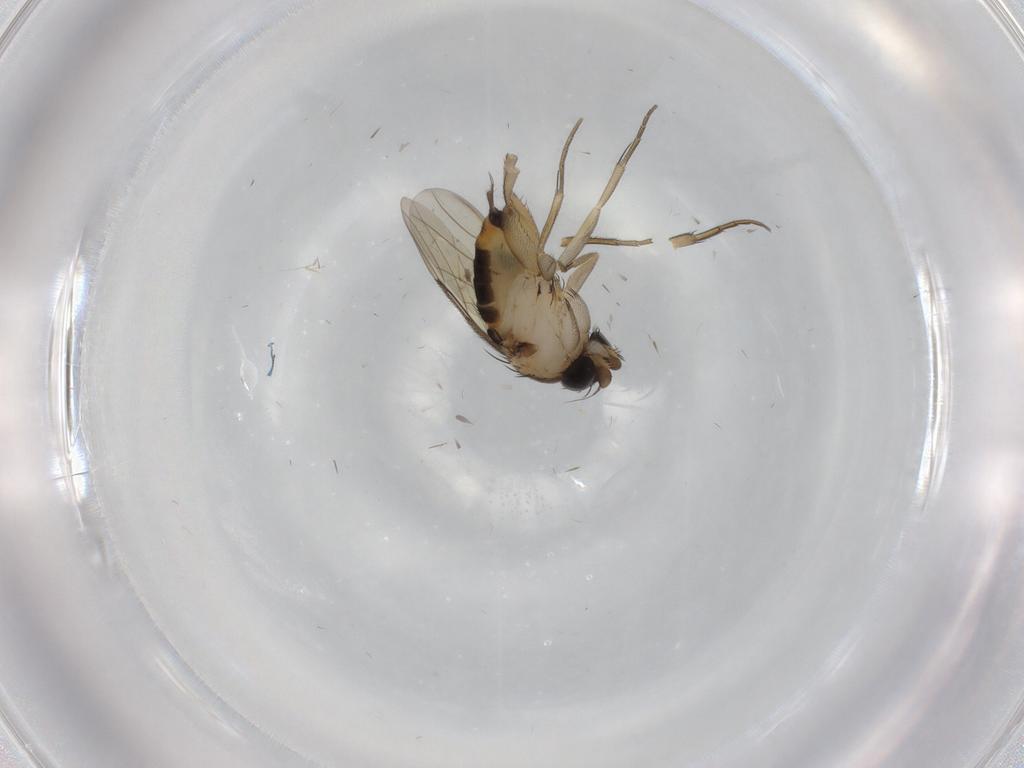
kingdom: Animalia
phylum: Arthropoda
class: Insecta
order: Diptera
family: Phoridae
